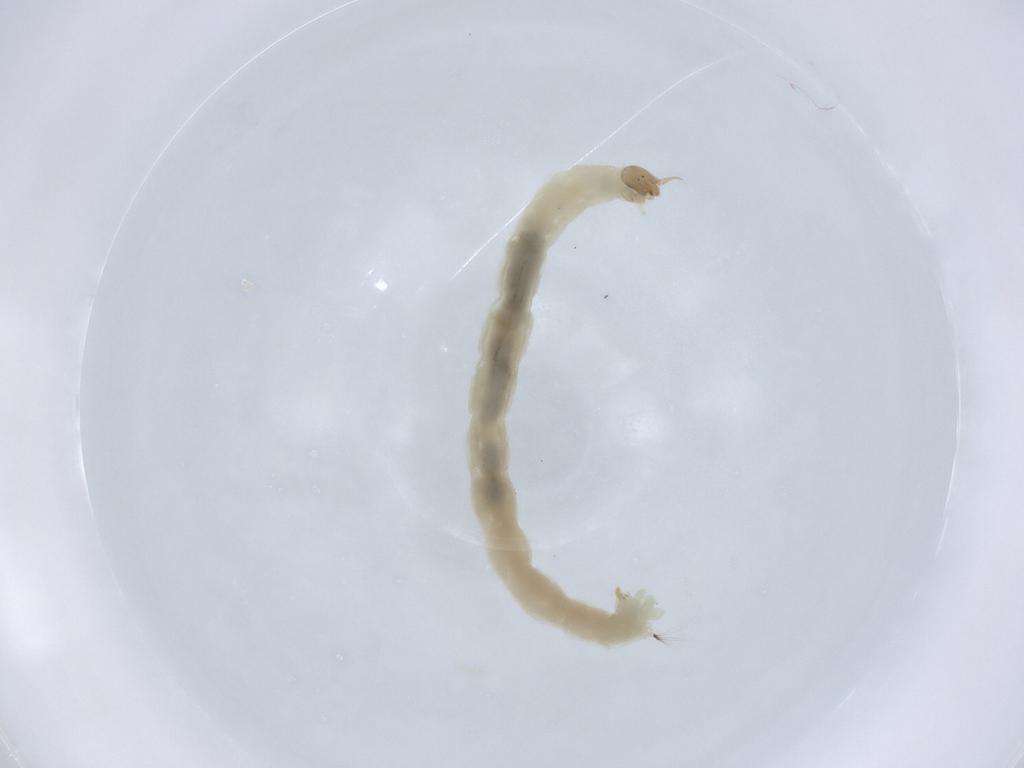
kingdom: Animalia
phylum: Arthropoda
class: Insecta
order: Diptera
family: Chironomidae
